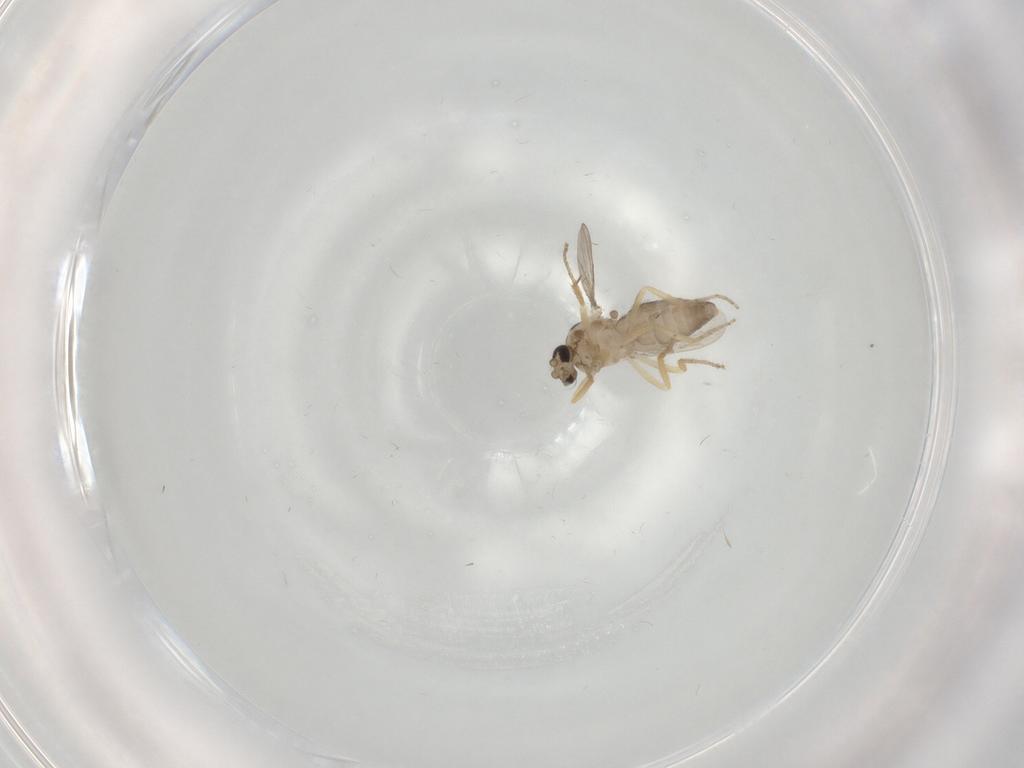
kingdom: Animalia
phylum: Arthropoda
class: Insecta
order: Diptera
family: Ceratopogonidae
